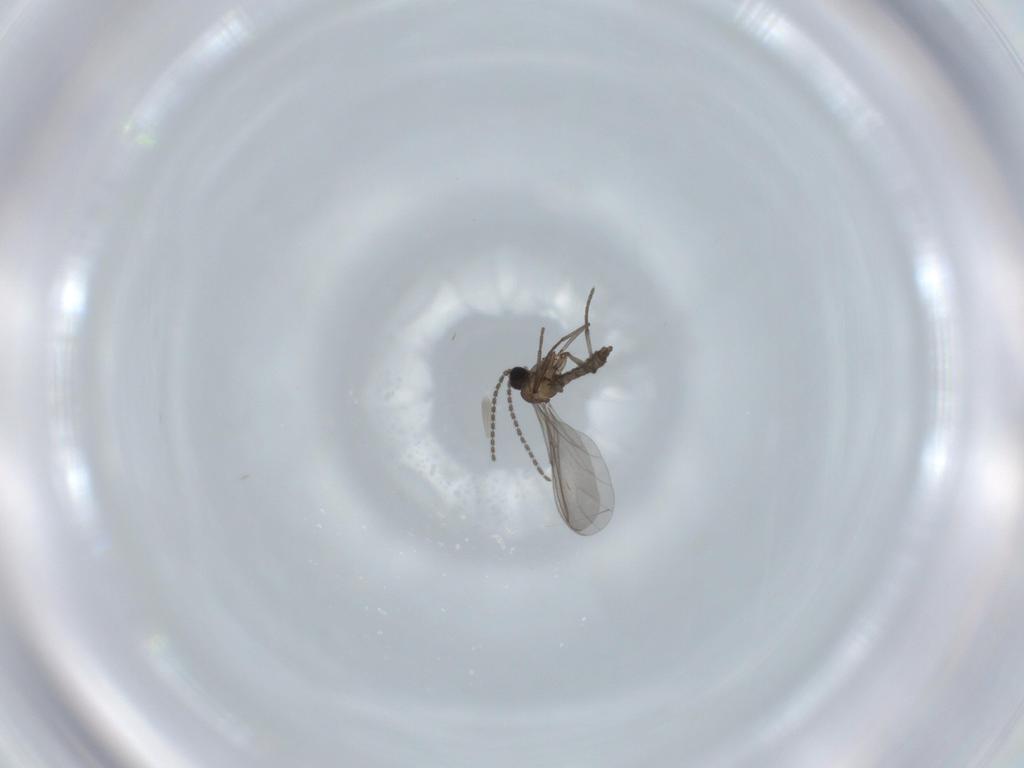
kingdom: Animalia
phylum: Arthropoda
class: Insecta
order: Diptera
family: Sciaridae
